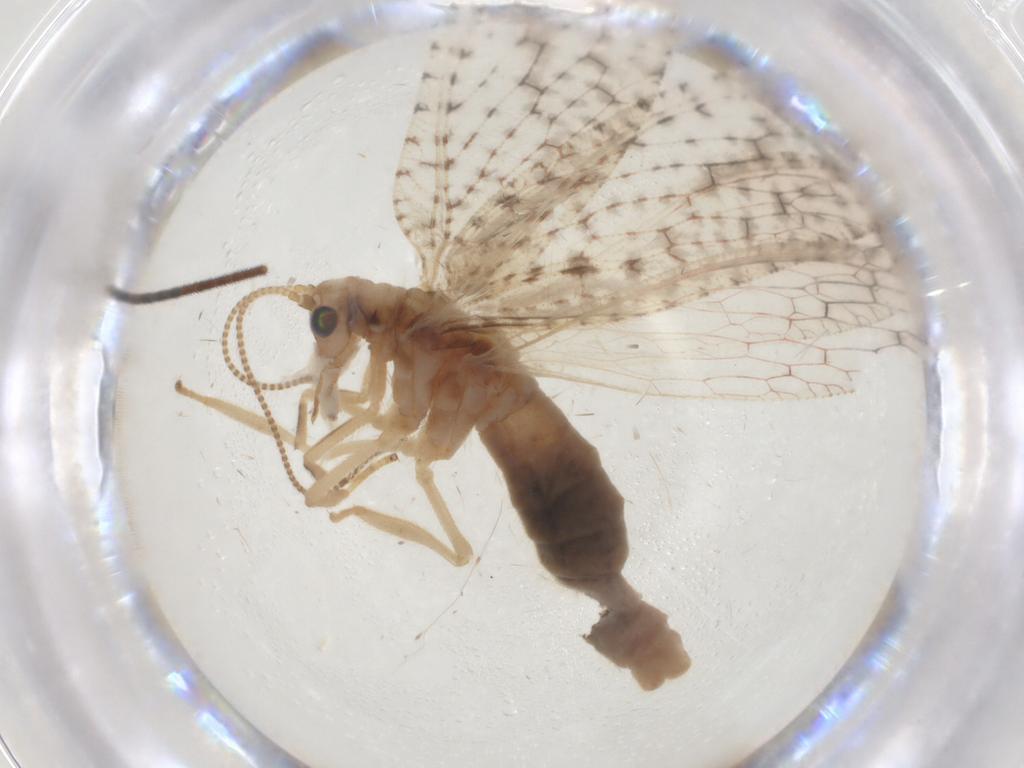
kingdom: Animalia
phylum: Arthropoda
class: Insecta
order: Neuroptera
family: Hemerobiidae
